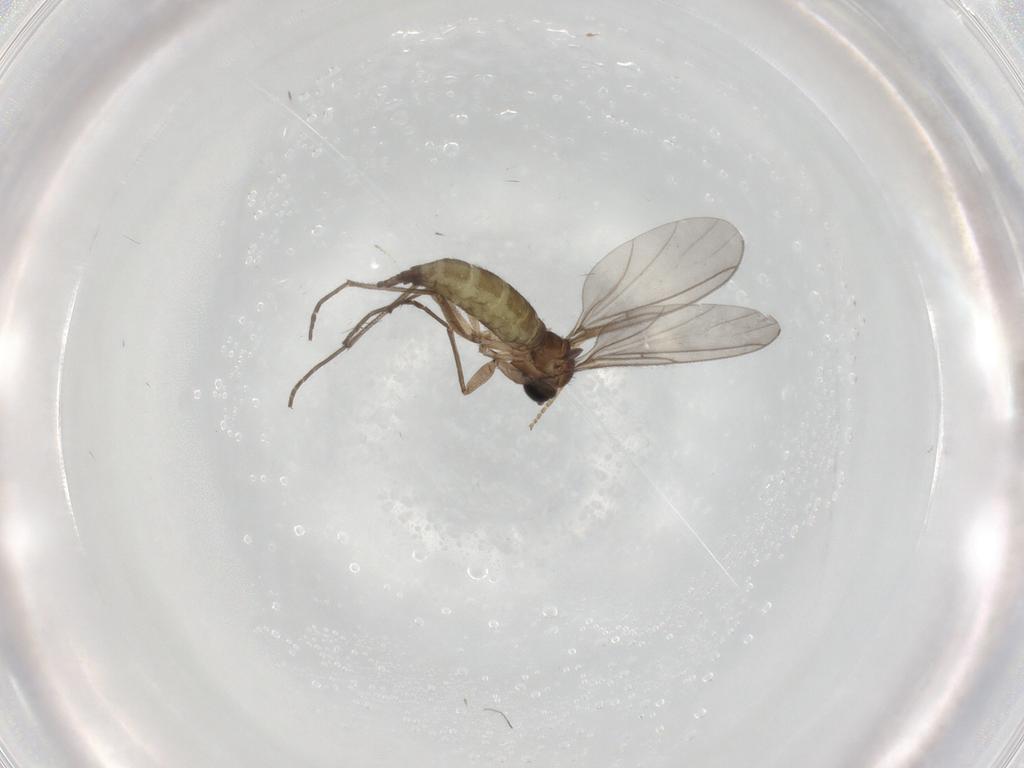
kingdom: Animalia
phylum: Arthropoda
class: Insecta
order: Diptera
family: Sciaridae
